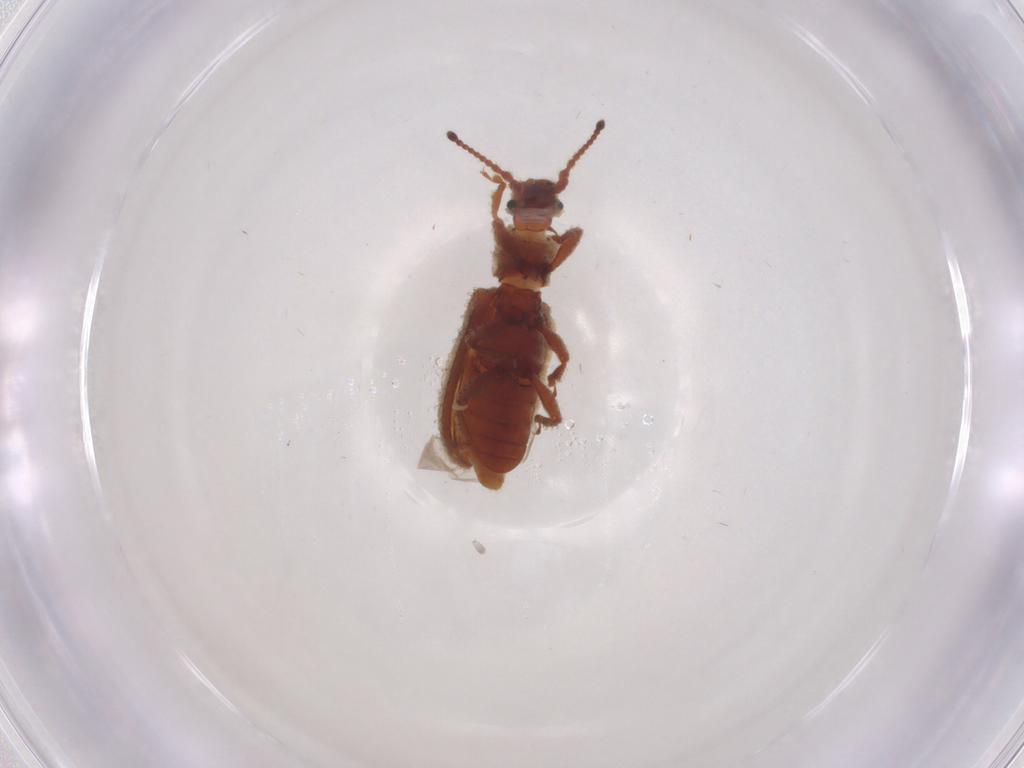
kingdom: Animalia
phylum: Arthropoda
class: Insecta
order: Coleoptera
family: Zopheridae
